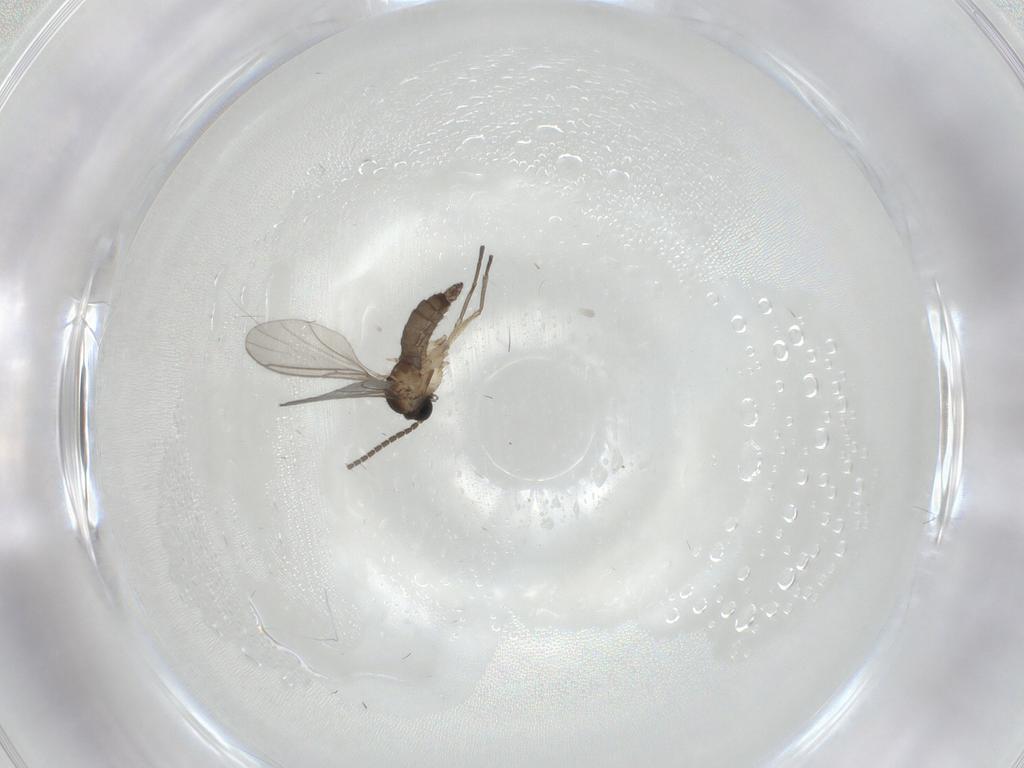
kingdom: Animalia
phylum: Arthropoda
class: Insecta
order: Diptera
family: Sciaridae
